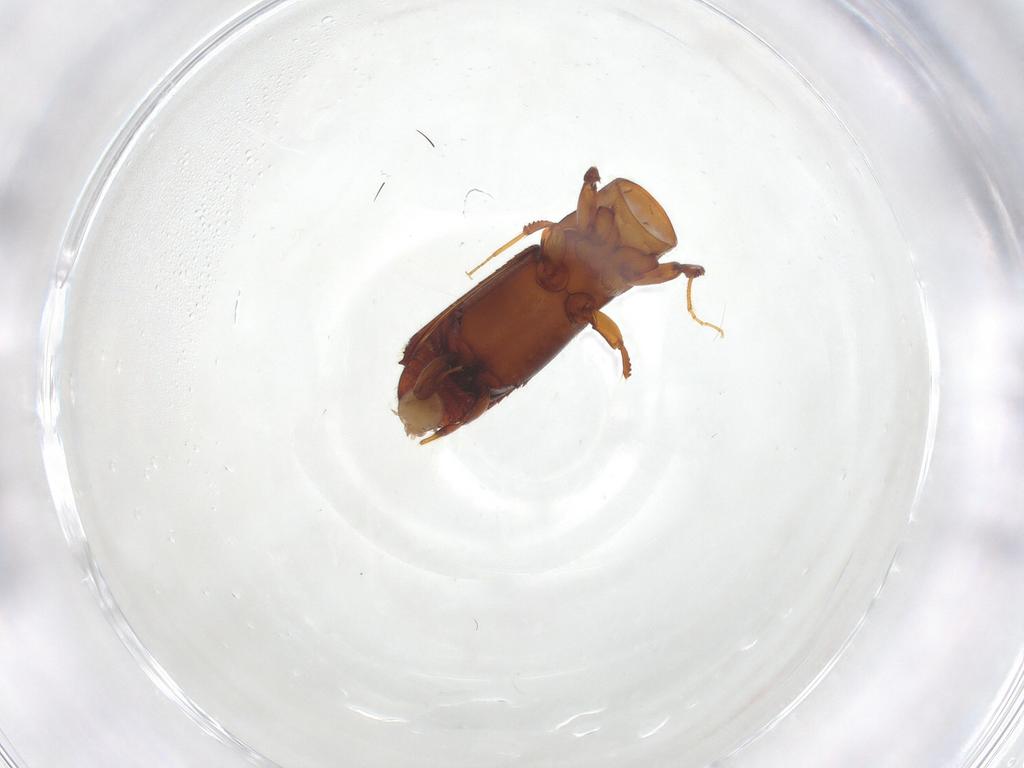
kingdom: Animalia
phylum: Arthropoda
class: Insecta
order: Coleoptera
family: Curculionidae
